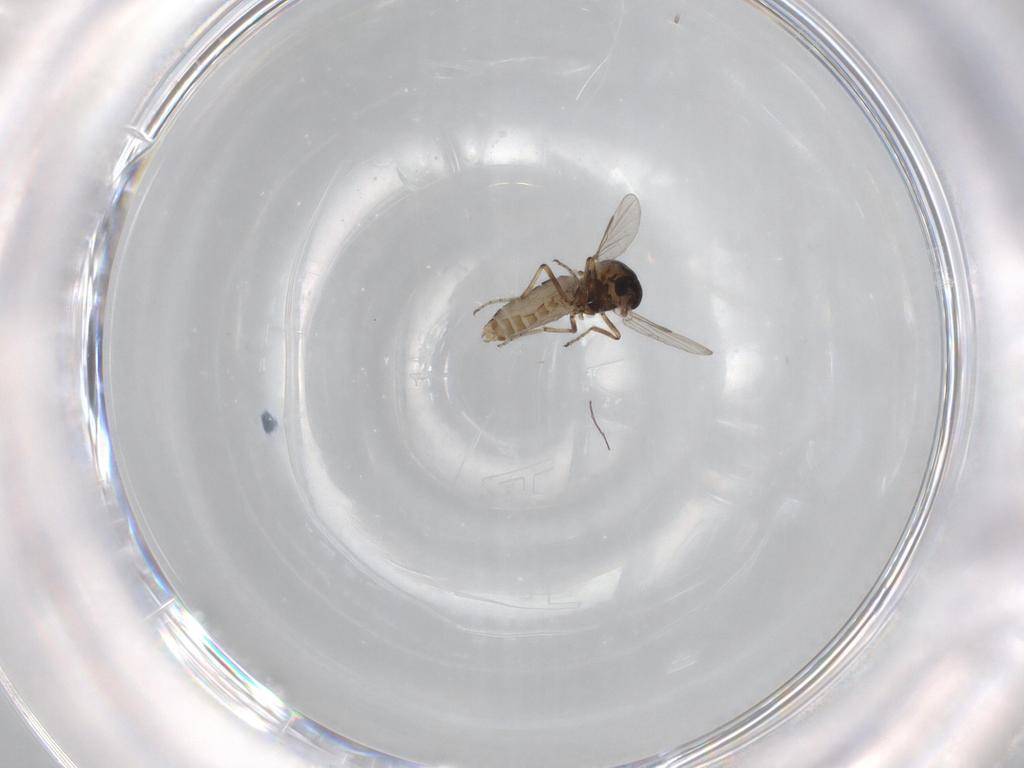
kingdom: Animalia
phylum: Arthropoda
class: Insecta
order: Diptera
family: Ceratopogonidae
